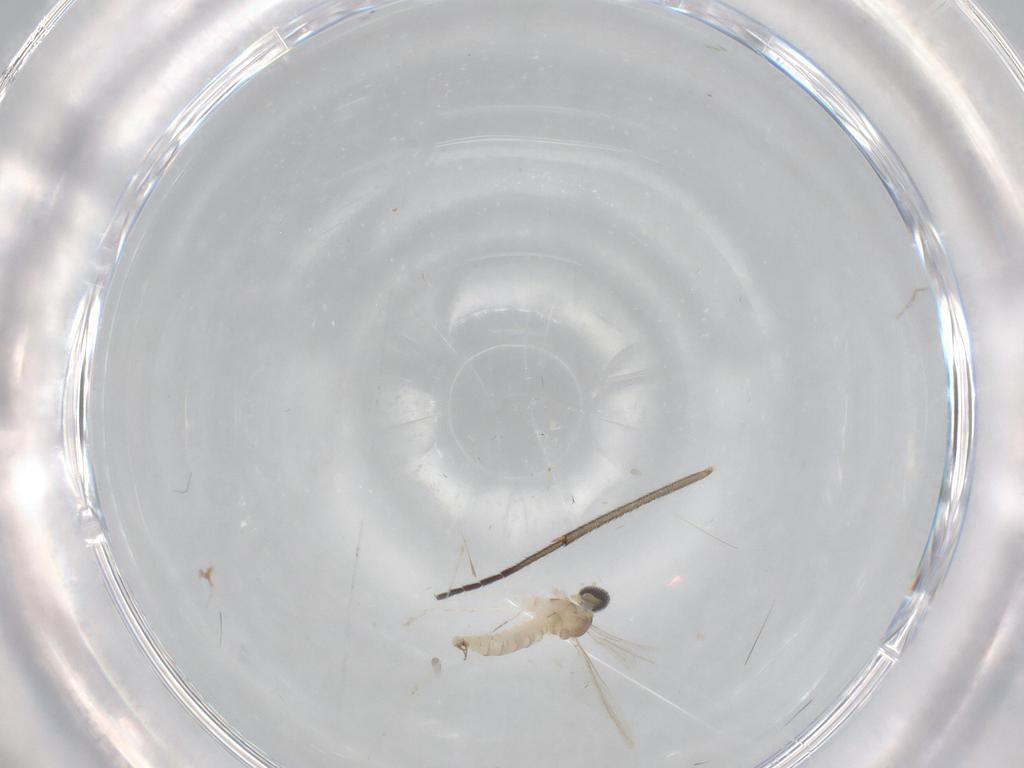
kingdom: Animalia
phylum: Arthropoda
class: Insecta
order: Diptera
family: Cecidomyiidae
